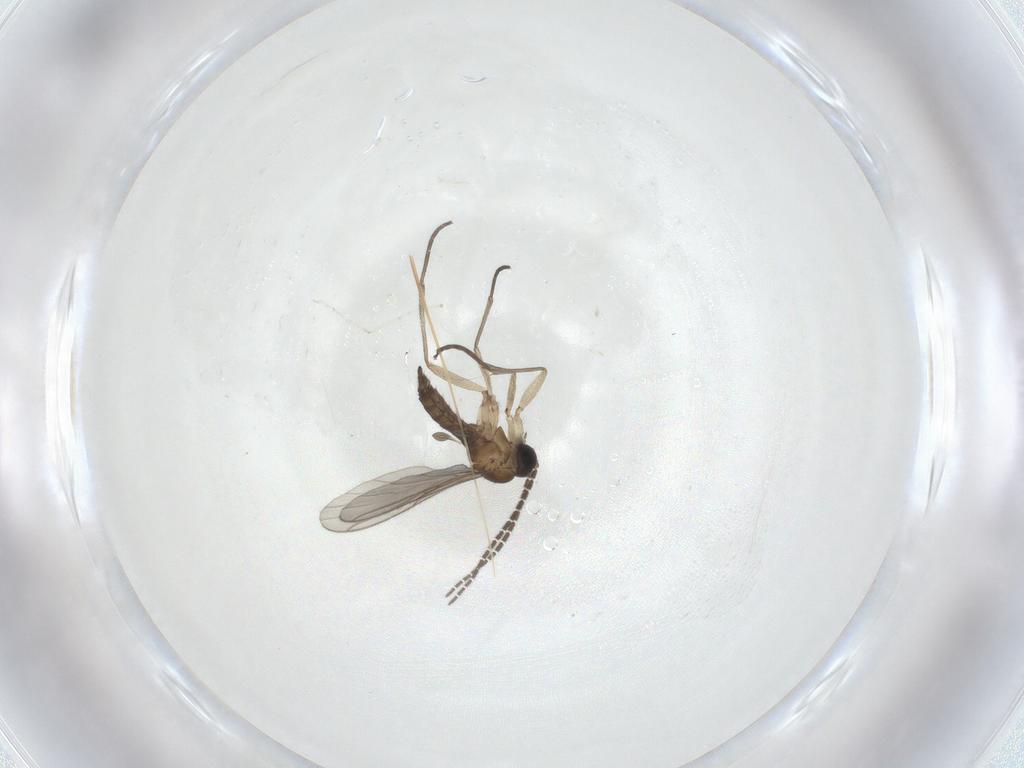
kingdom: Animalia
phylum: Arthropoda
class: Insecta
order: Diptera
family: Sciaridae
